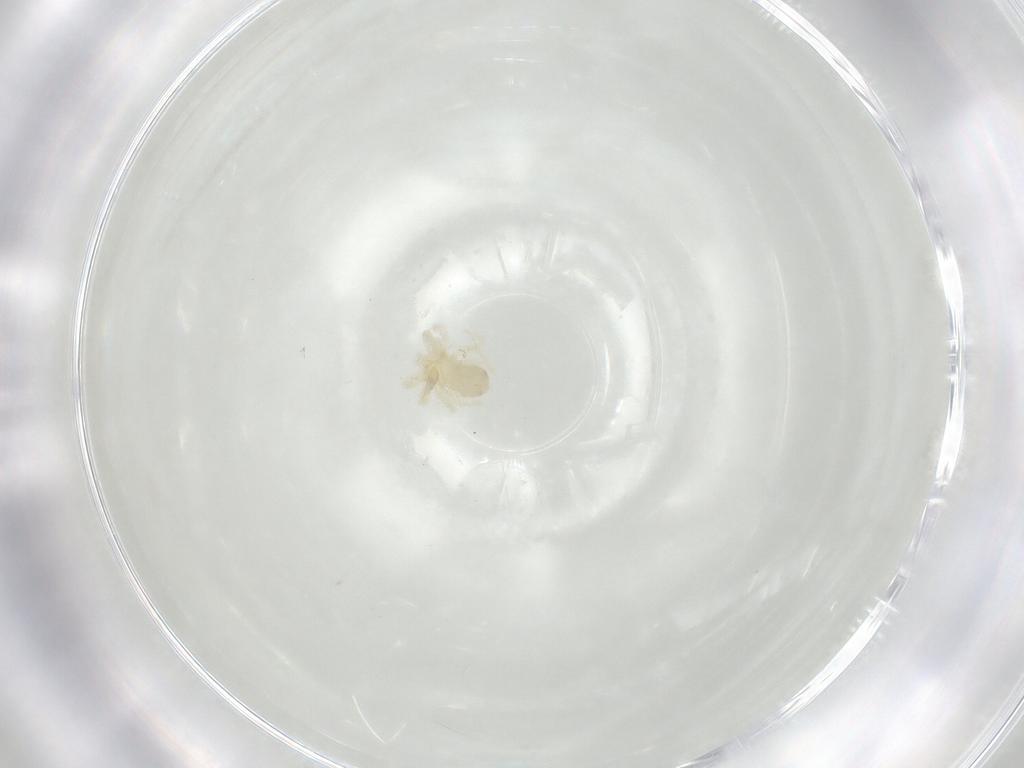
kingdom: Animalia
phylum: Arthropoda
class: Arachnida
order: Trombidiformes
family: Anystidae
